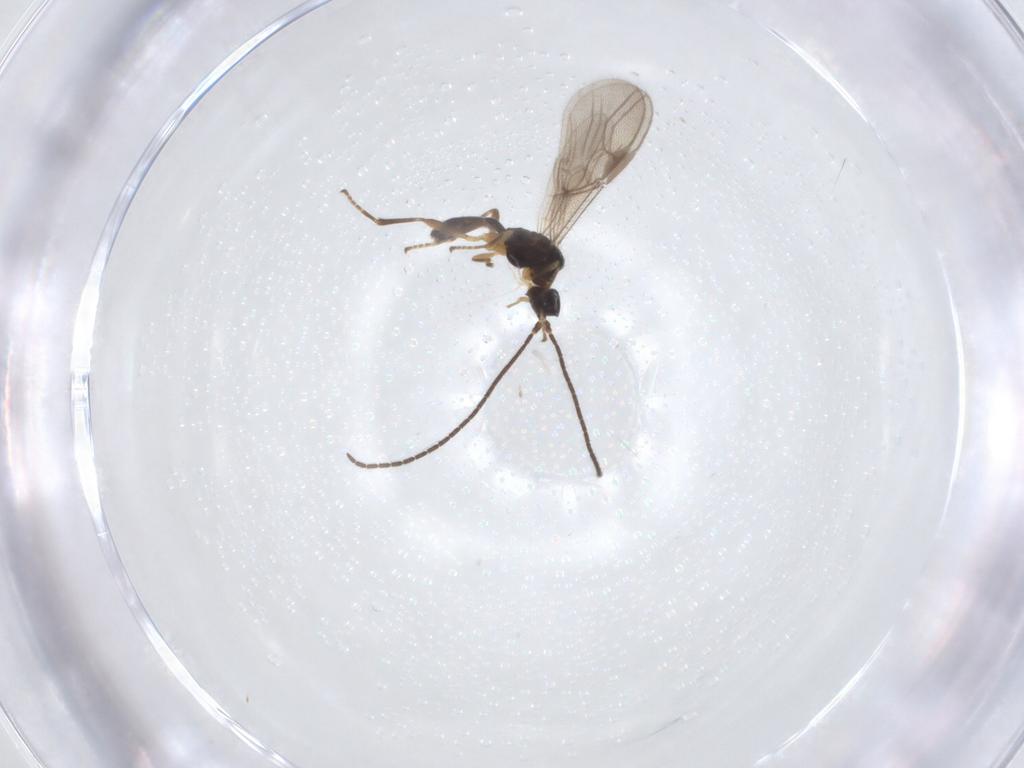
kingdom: Animalia
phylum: Arthropoda
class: Insecta
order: Hymenoptera
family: Braconidae
